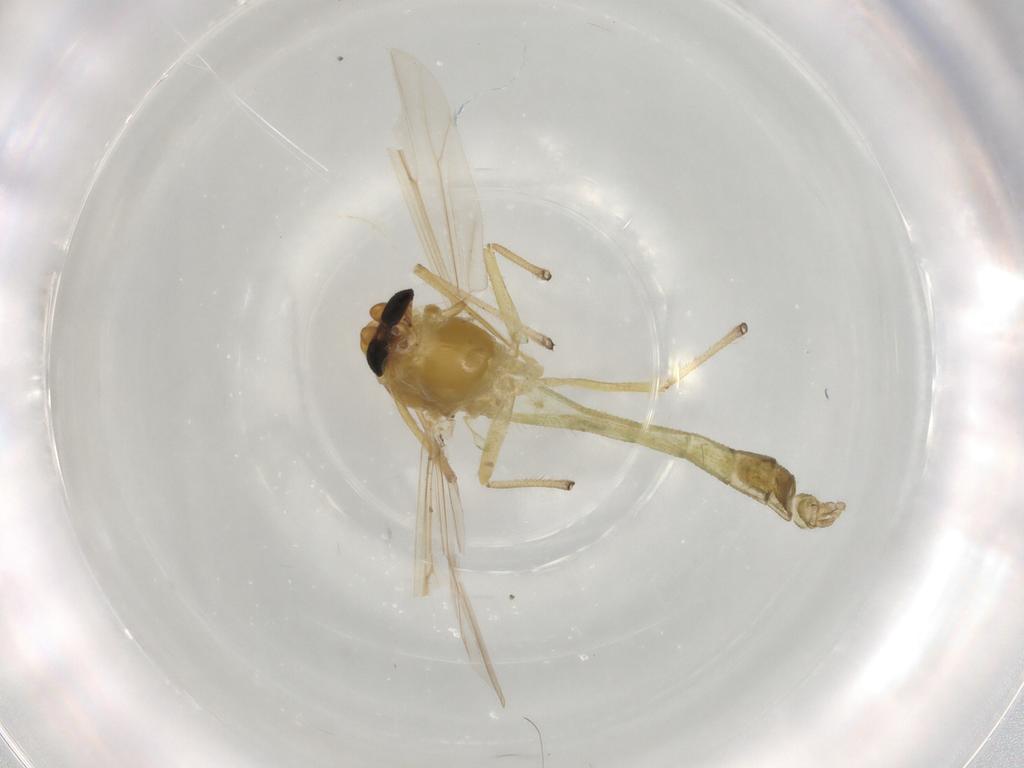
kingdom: Animalia
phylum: Arthropoda
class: Insecta
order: Diptera
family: Chironomidae
